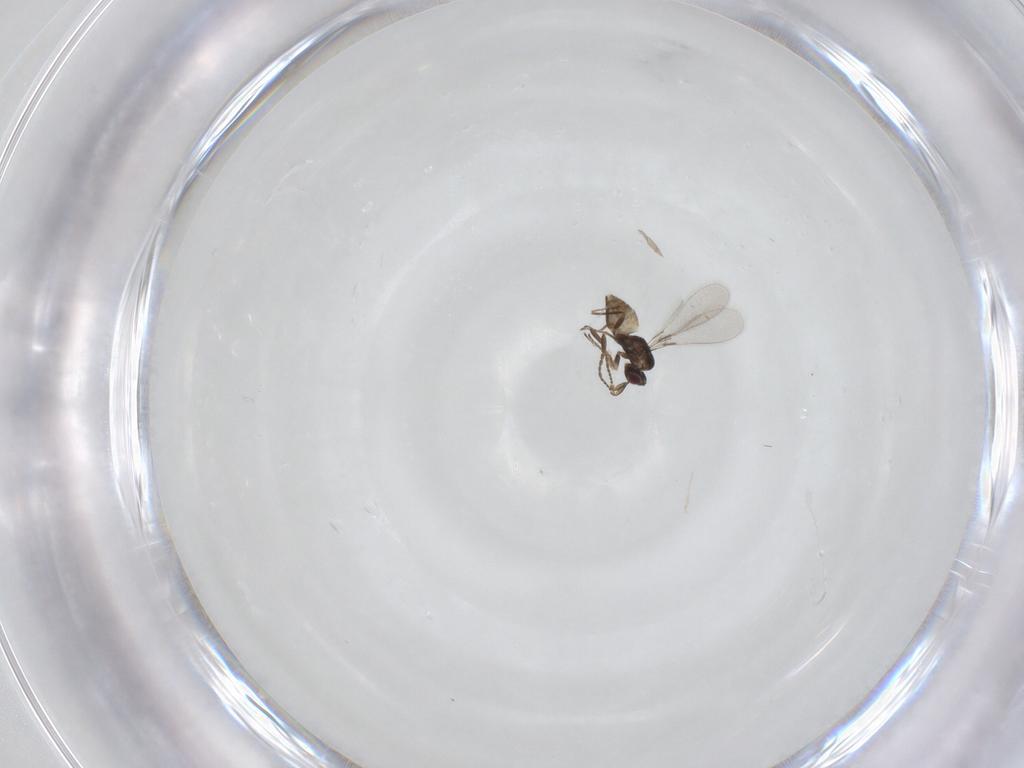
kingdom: Animalia
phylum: Arthropoda
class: Insecta
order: Hymenoptera
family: Mymaridae
